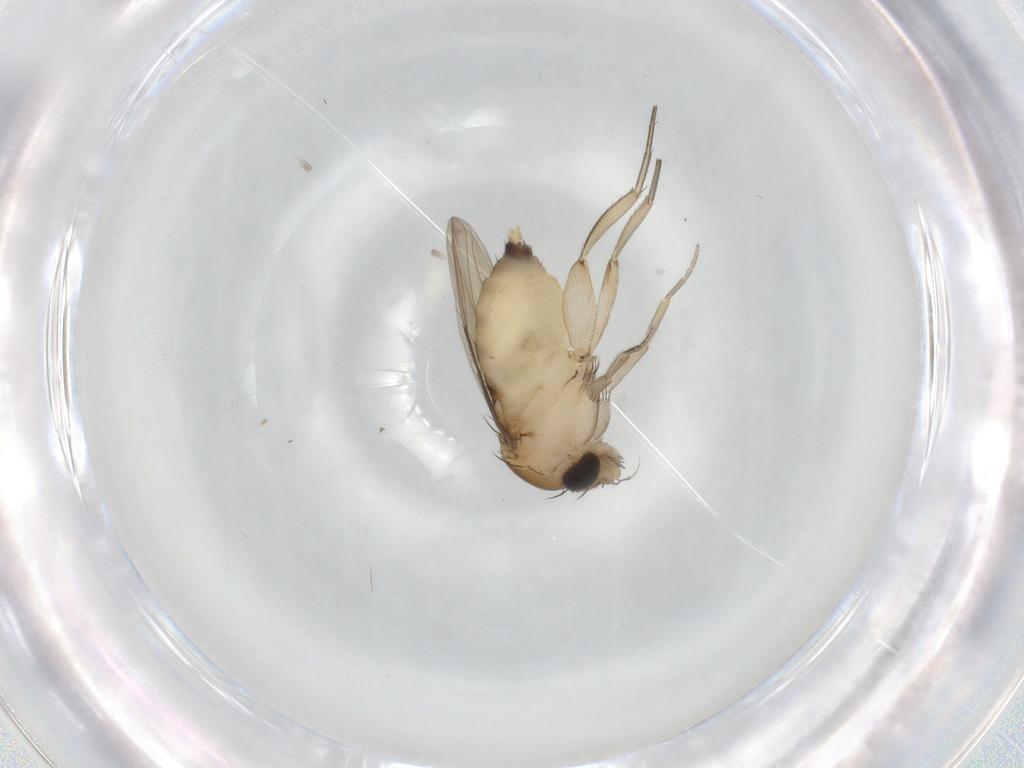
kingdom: Animalia
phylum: Arthropoda
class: Insecta
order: Diptera
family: Phoridae
